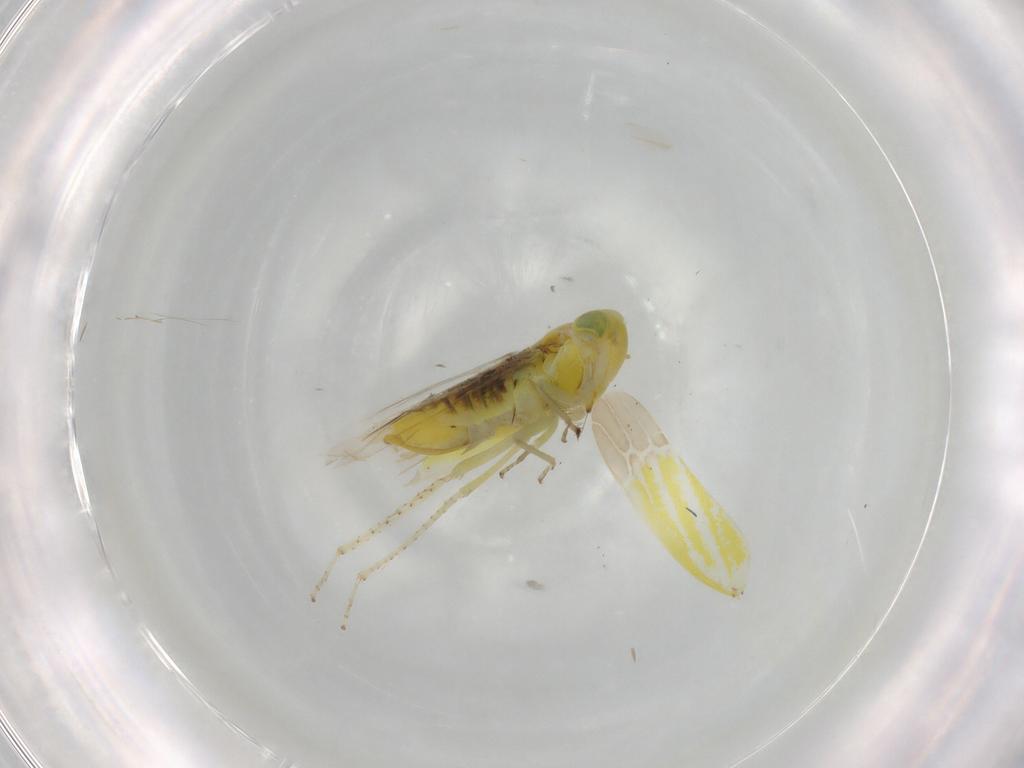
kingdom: Animalia
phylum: Arthropoda
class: Insecta
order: Hemiptera
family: Cicadellidae
